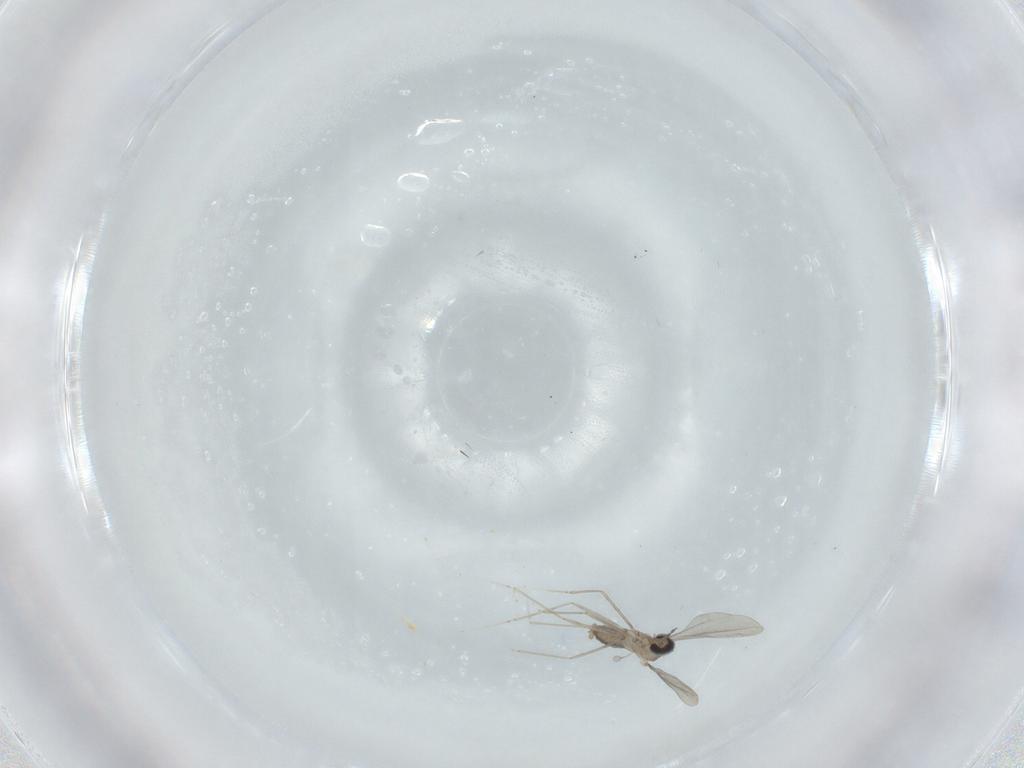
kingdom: Animalia
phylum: Arthropoda
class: Insecta
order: Diptera
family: Cecidomyiidae
